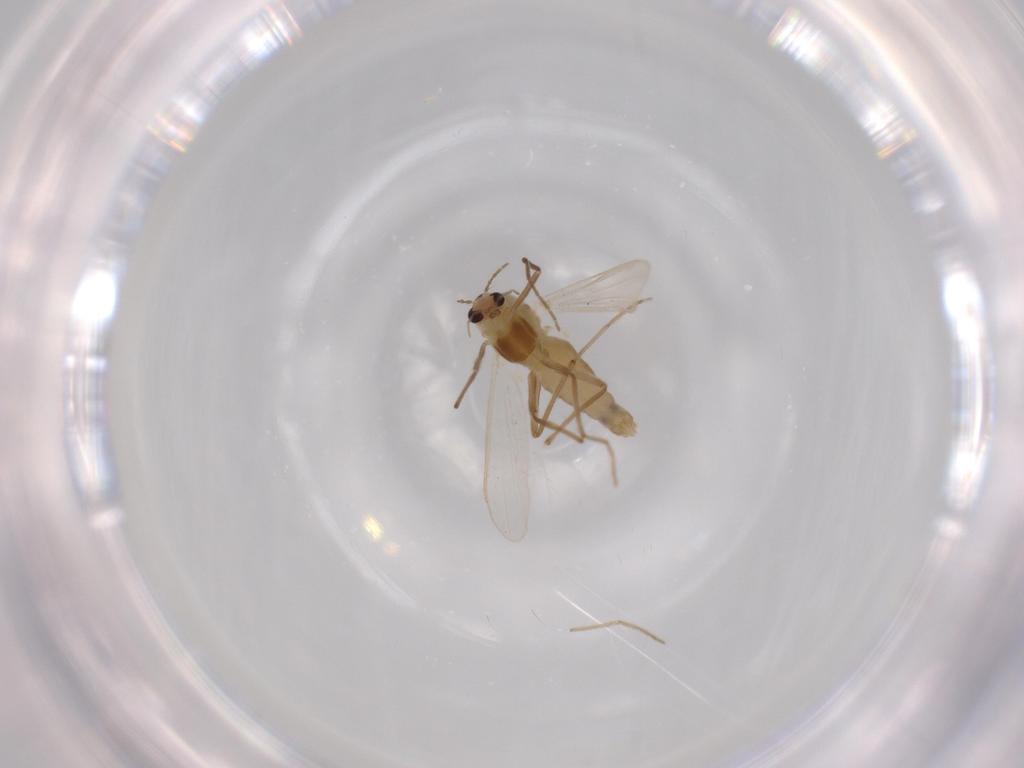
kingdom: Animalia
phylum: Arthropoda
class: Insecta
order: Diptera
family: Chironomidae
